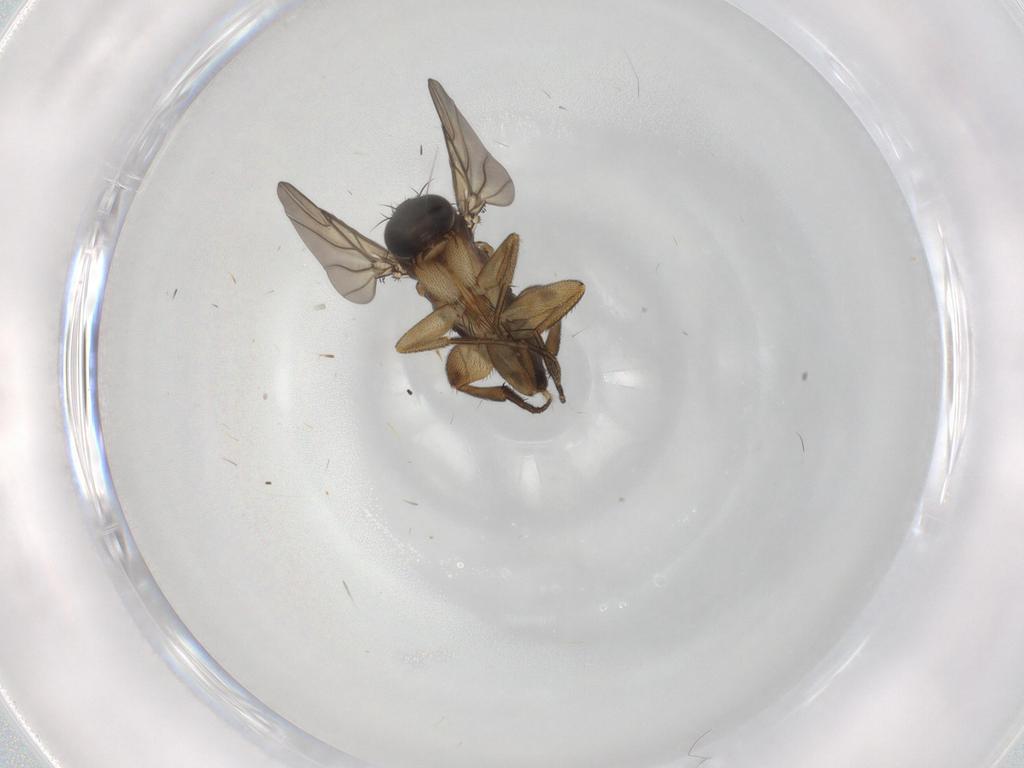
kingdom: Animalia
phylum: Arthropoda
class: Insecta
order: Diptera
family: Phoridae
